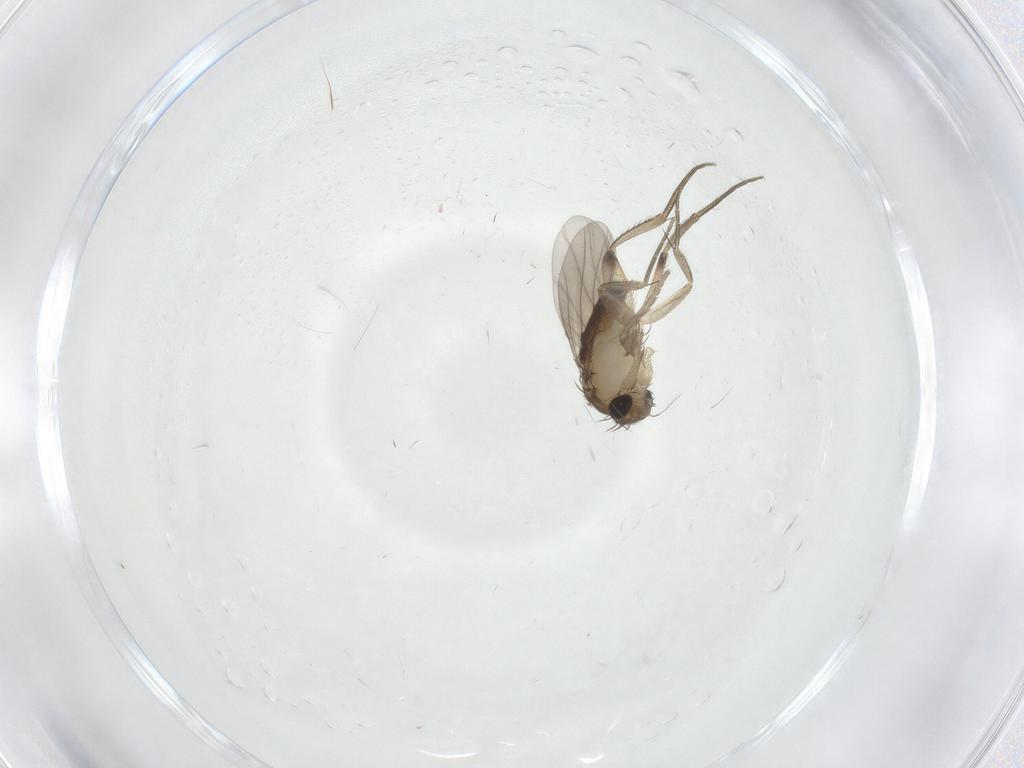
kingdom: Animalia
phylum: Arthropoda
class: Insecta
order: Diptera
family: Phoridae
